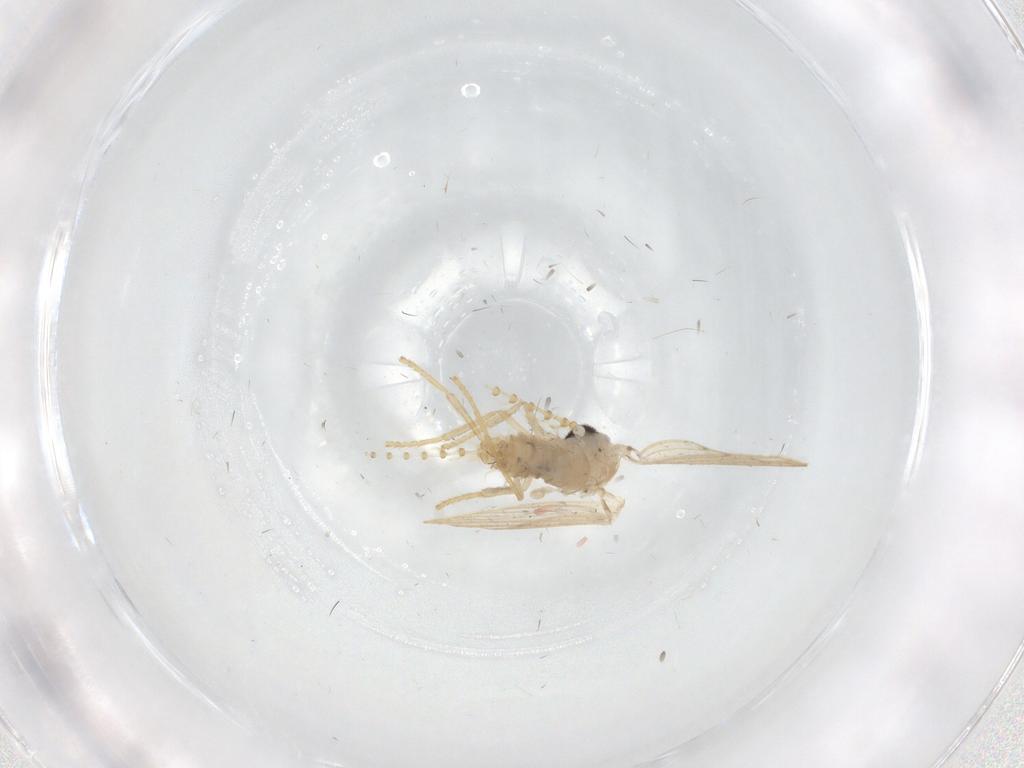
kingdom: Animalia
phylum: Arthropoda
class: Insecta
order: Diptera
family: Psychodidae
